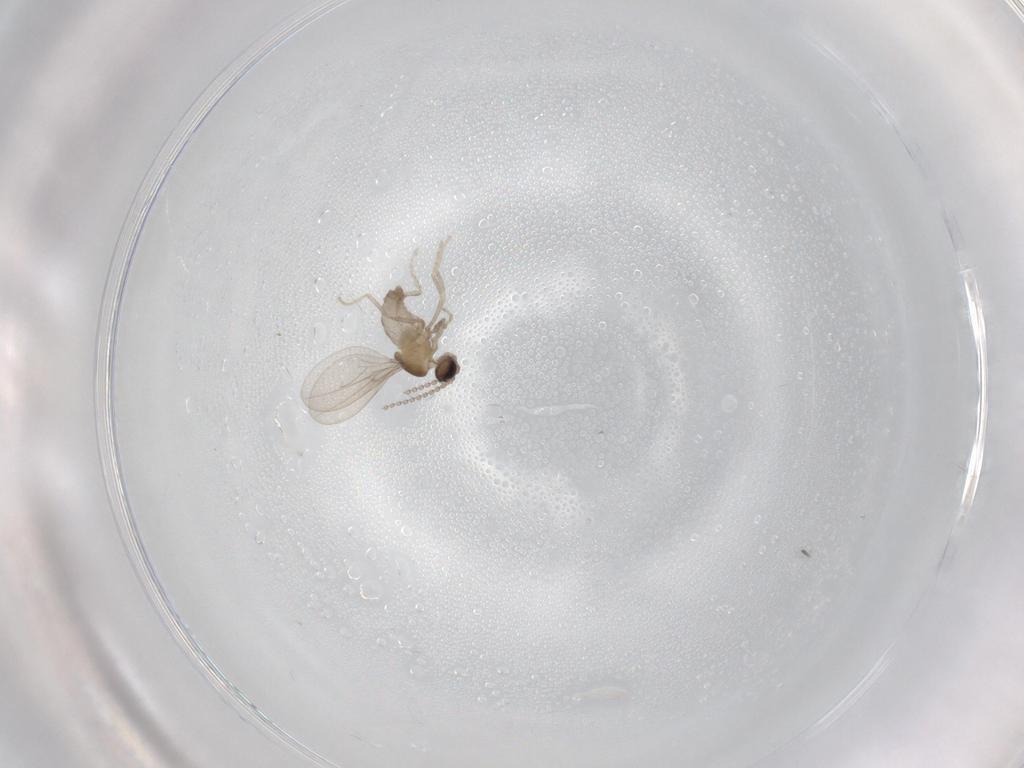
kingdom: Animalia
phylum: Arthropoda
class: Insecta
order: Diptera
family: Cecidomyiidae
